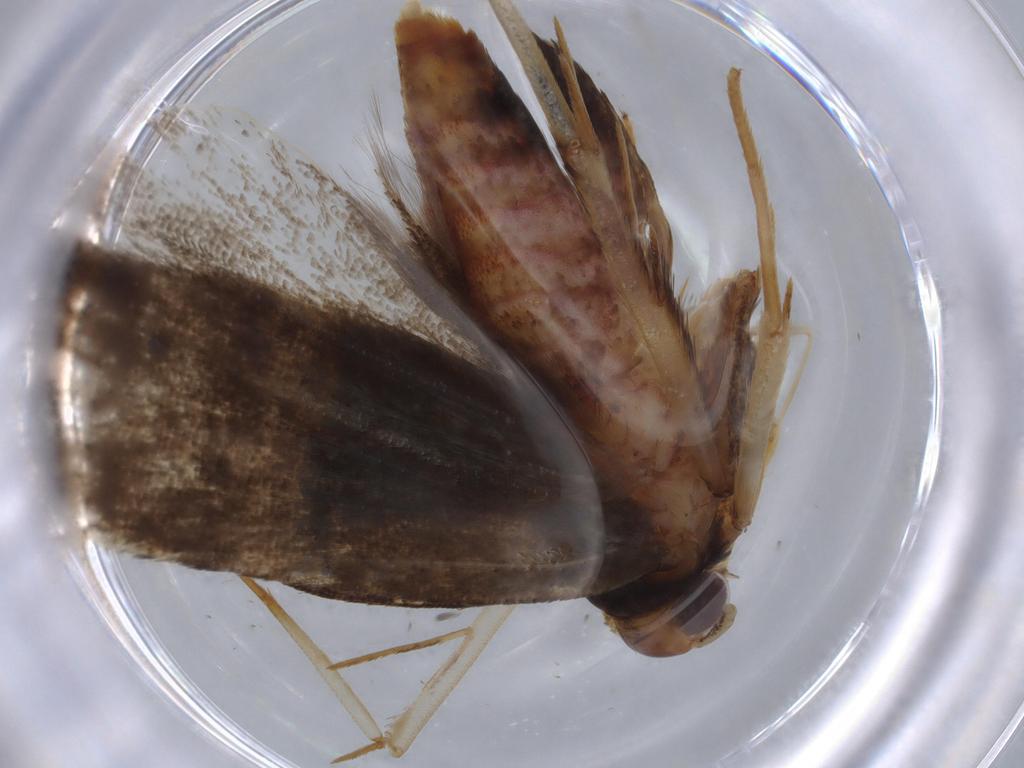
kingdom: Animalia
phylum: Arthropoda
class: Insecta
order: Lepidoptera
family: Lecithoceridae
